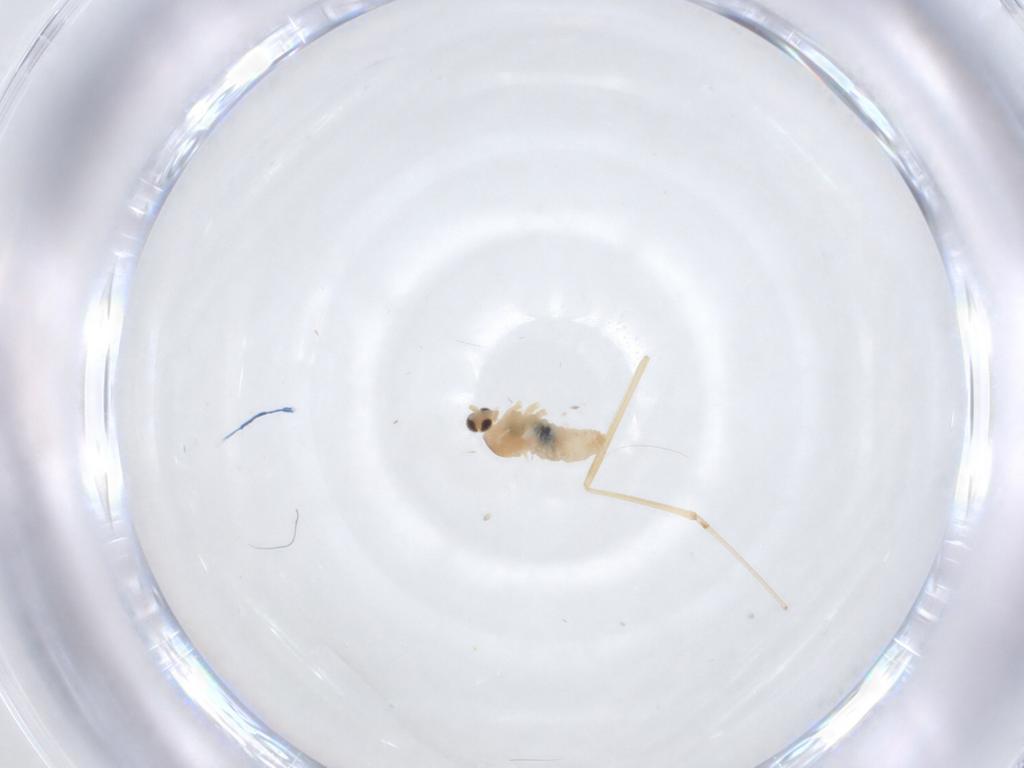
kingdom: Animalia
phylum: Arthropoda
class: Insecta
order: Diptera
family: Cecidomyiidae
